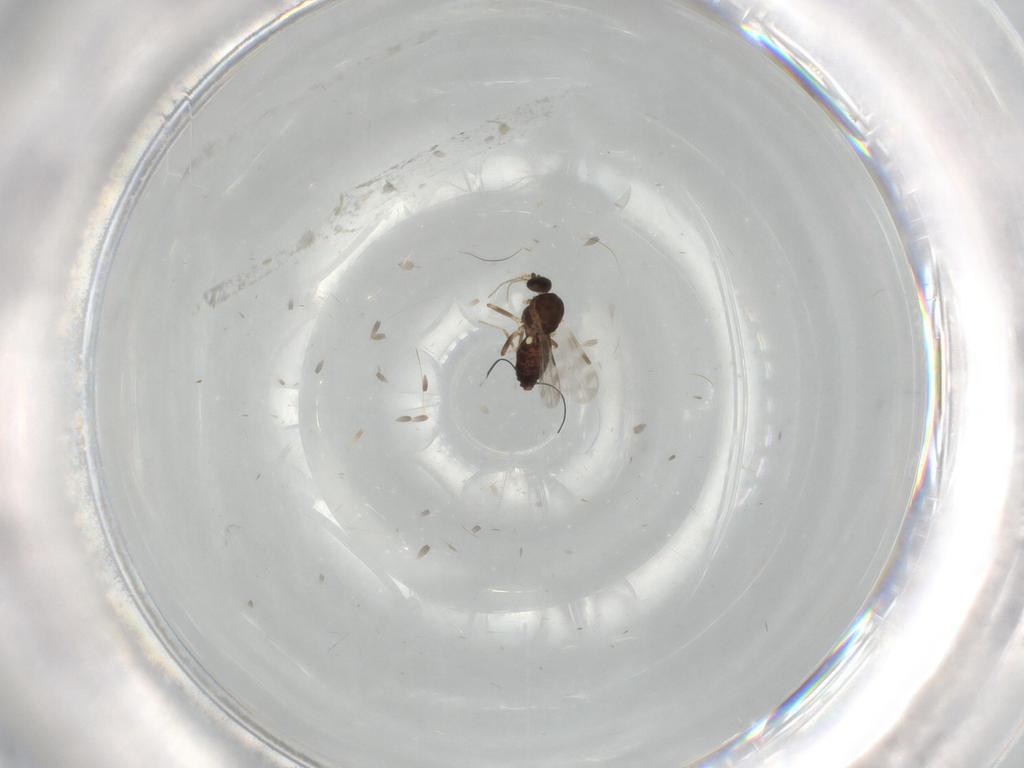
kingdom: Animalia
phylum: Arthropoda
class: Insecta
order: Diptera
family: Ceratopogonidae
